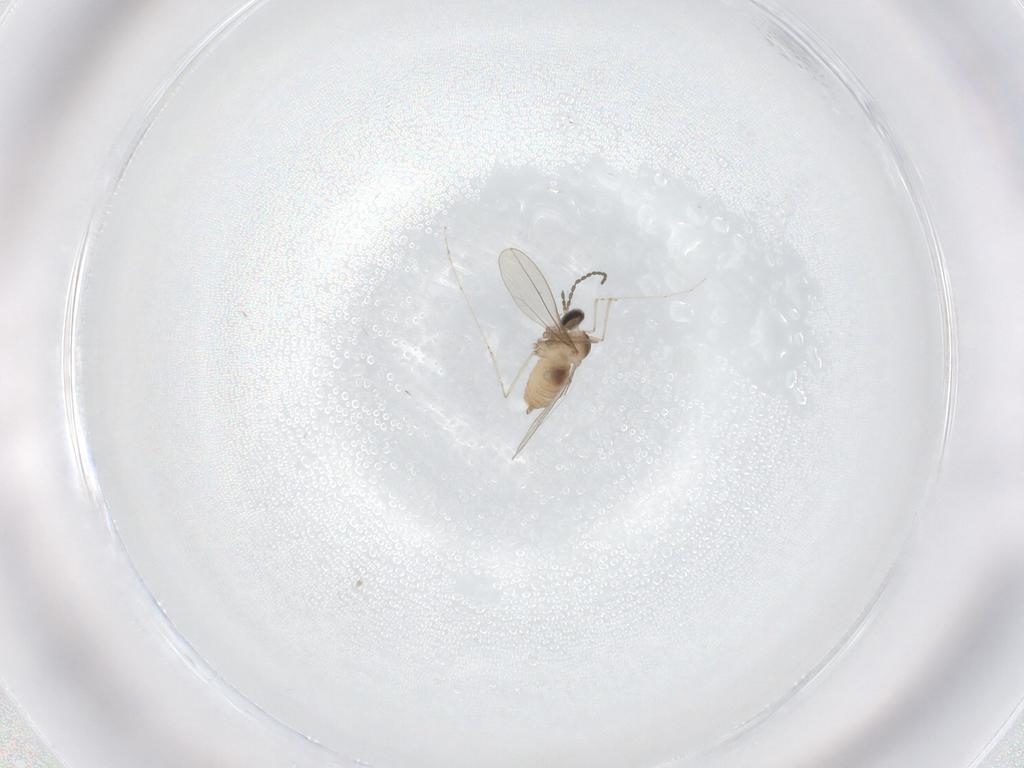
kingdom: Animalia
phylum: Arthropoda
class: Insecta
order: Diptera
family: Cecidomyiidae
